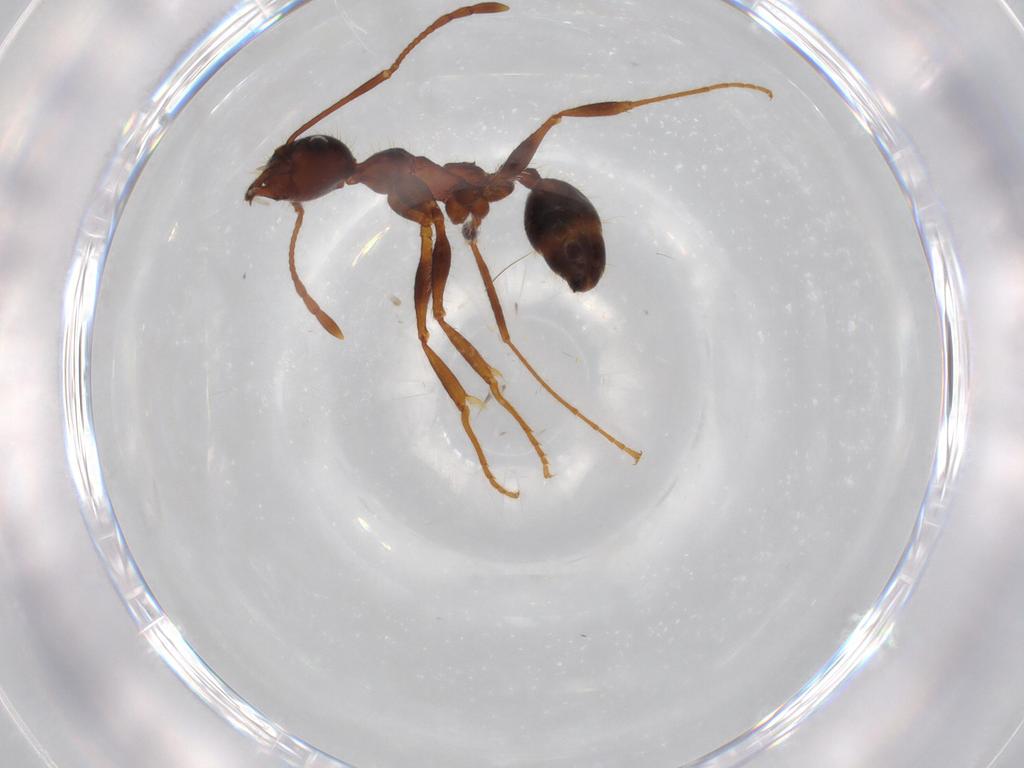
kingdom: Animalia
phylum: Arthropoda
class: Insecta
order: Hymenoptera
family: Formicidae
